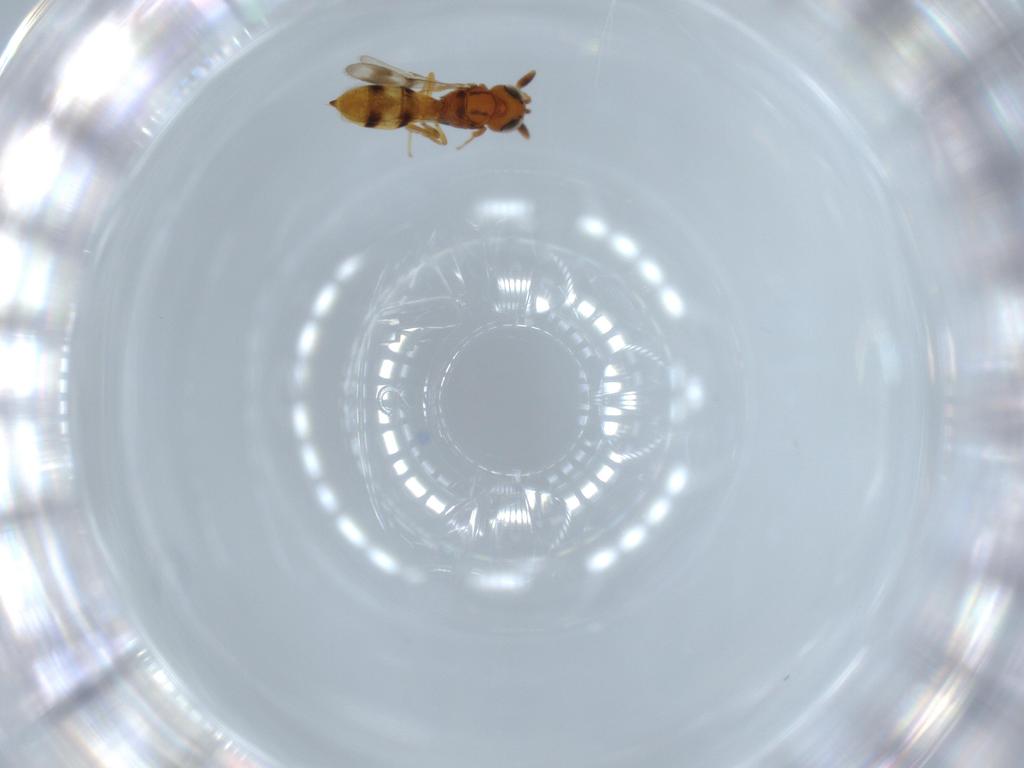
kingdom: Animalia
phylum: Arthropoda
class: Insecta
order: Hymenoptera
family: Scelionidae
